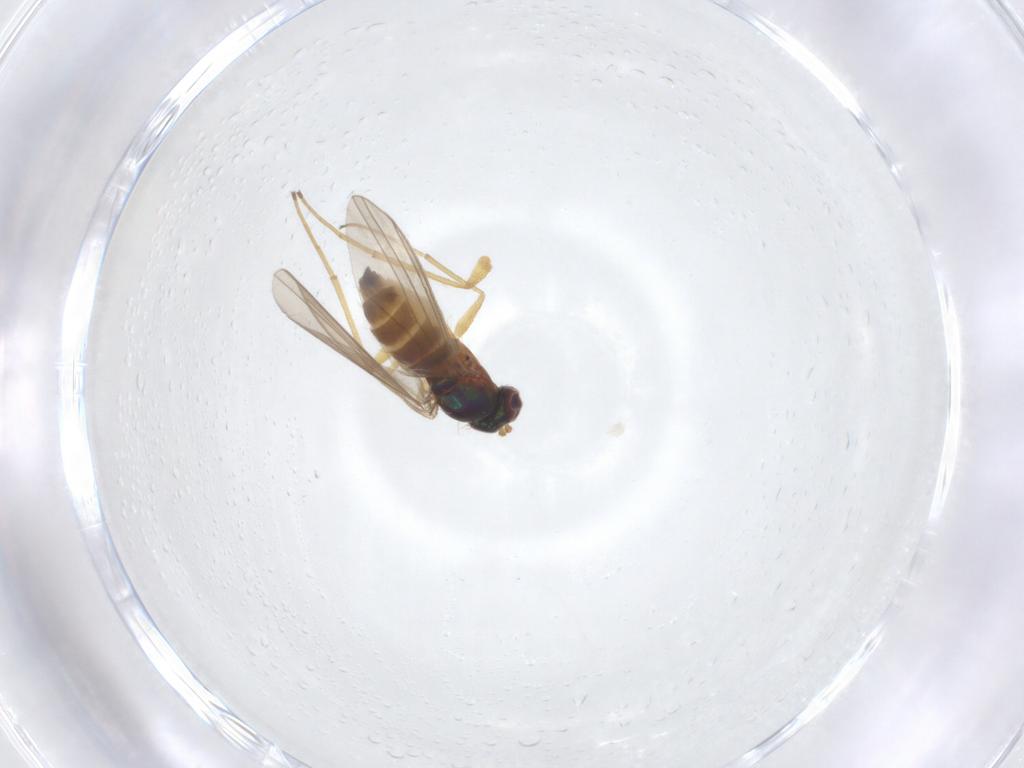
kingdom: Animalia
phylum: Arthropoda
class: Insecta
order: Diptera
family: Dolichopodidae
